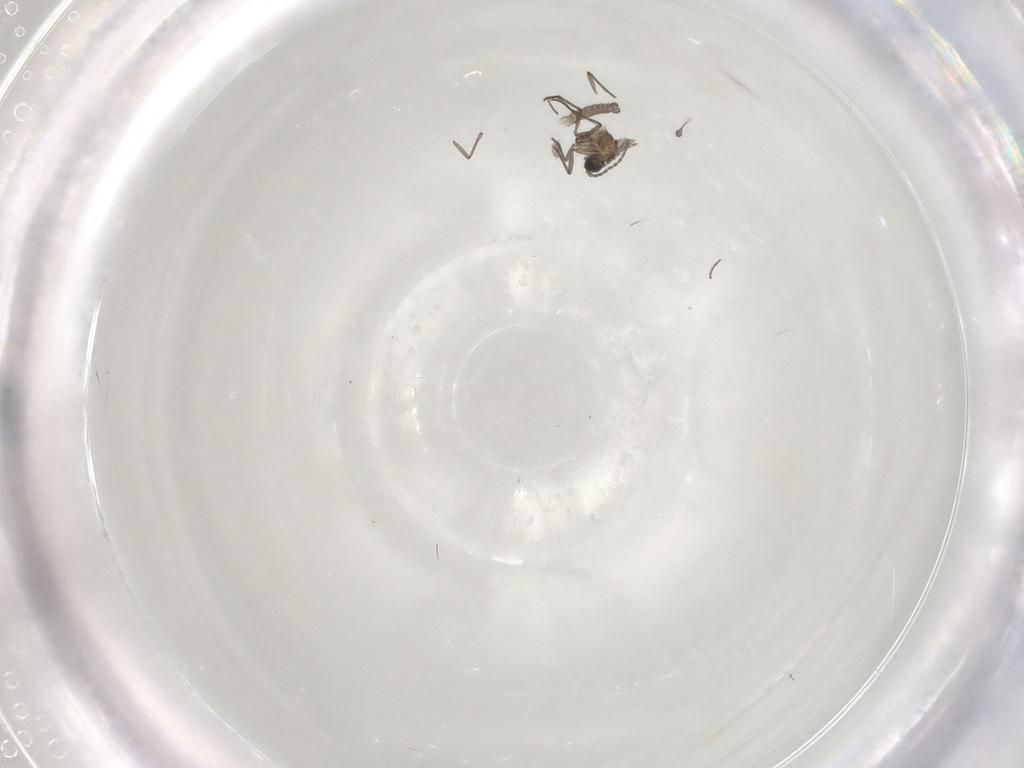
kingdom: Animalia
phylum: Arthropoda
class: Insecta
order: Diptera
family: Sciaridae
